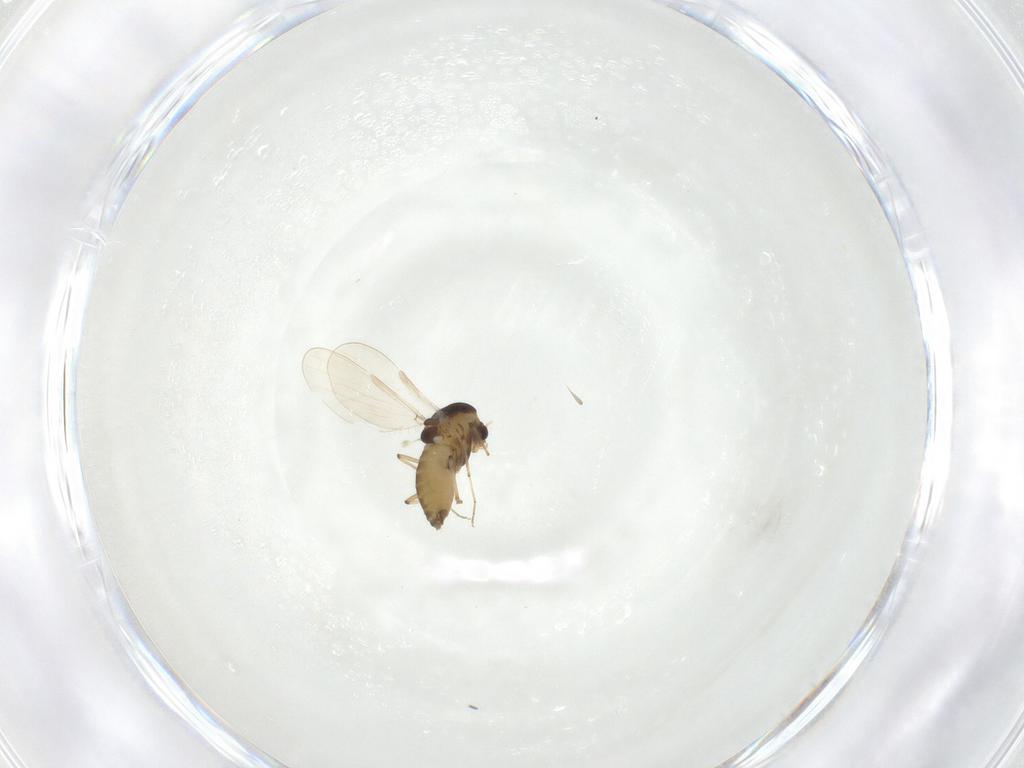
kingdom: Animalia
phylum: Arthropoda
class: Insecta
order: Diptera
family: Chironomidae
